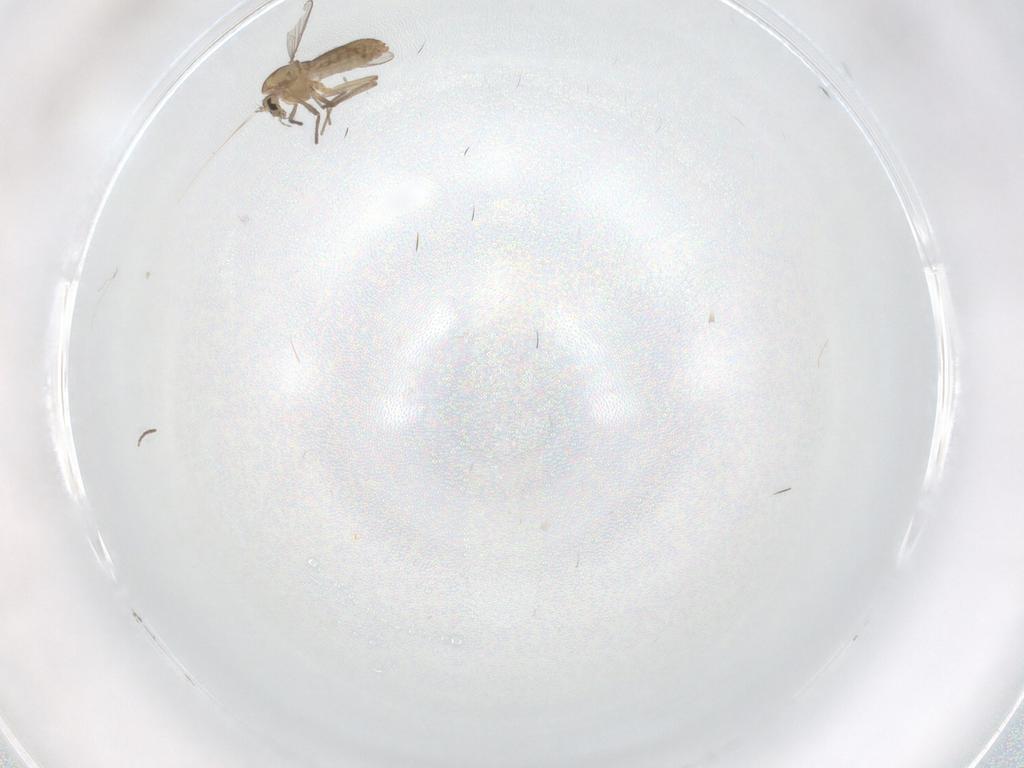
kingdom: Animalia
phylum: Arthropoda
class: Insecta
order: Diptera
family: Chironomidae
